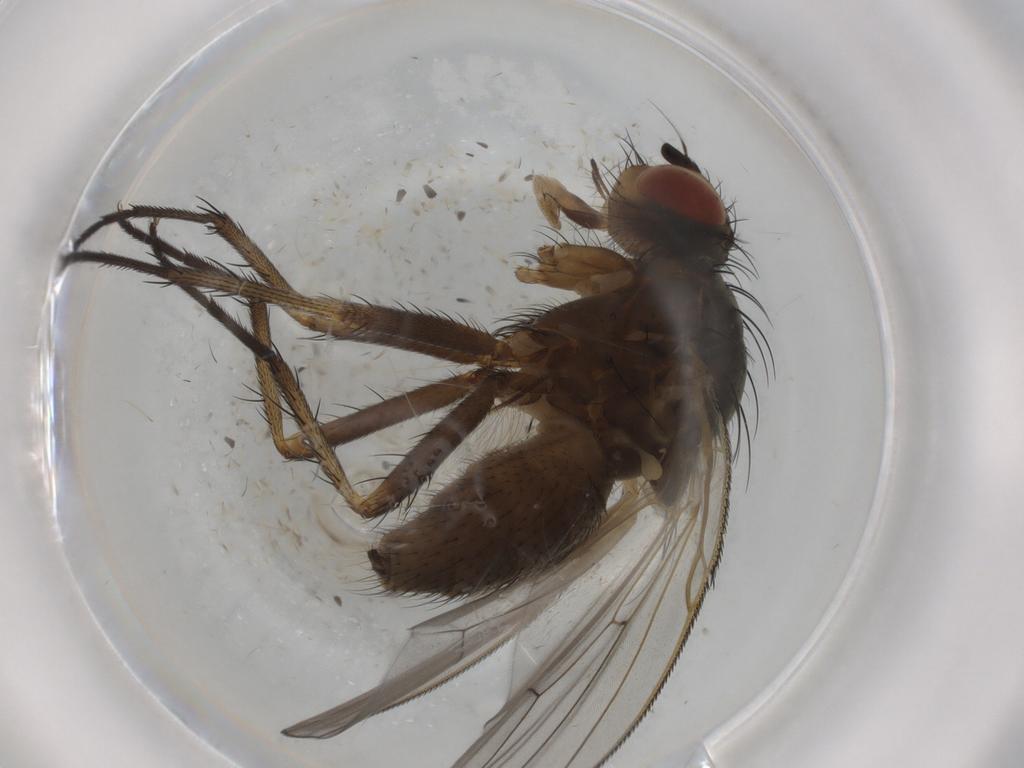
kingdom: Animalia
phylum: Arthropoda
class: Insecta
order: Diptera
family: Anthomyiidae
